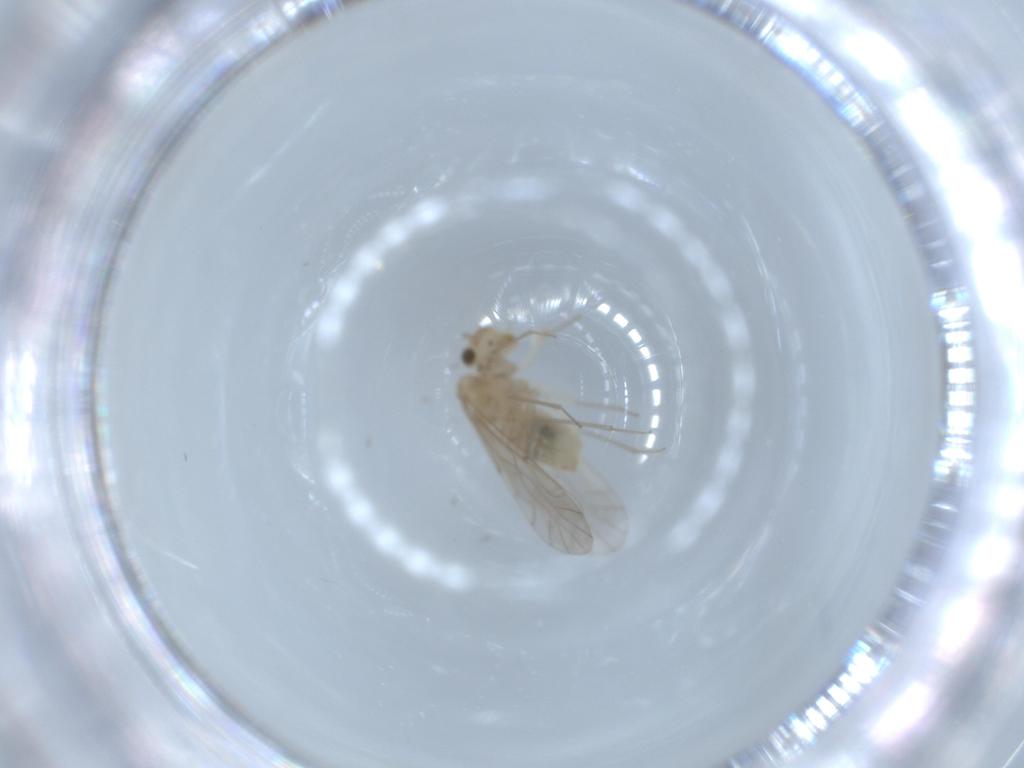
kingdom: Animalia
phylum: Arthropoda
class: Insecta
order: Psocodea
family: Lachesillidae
